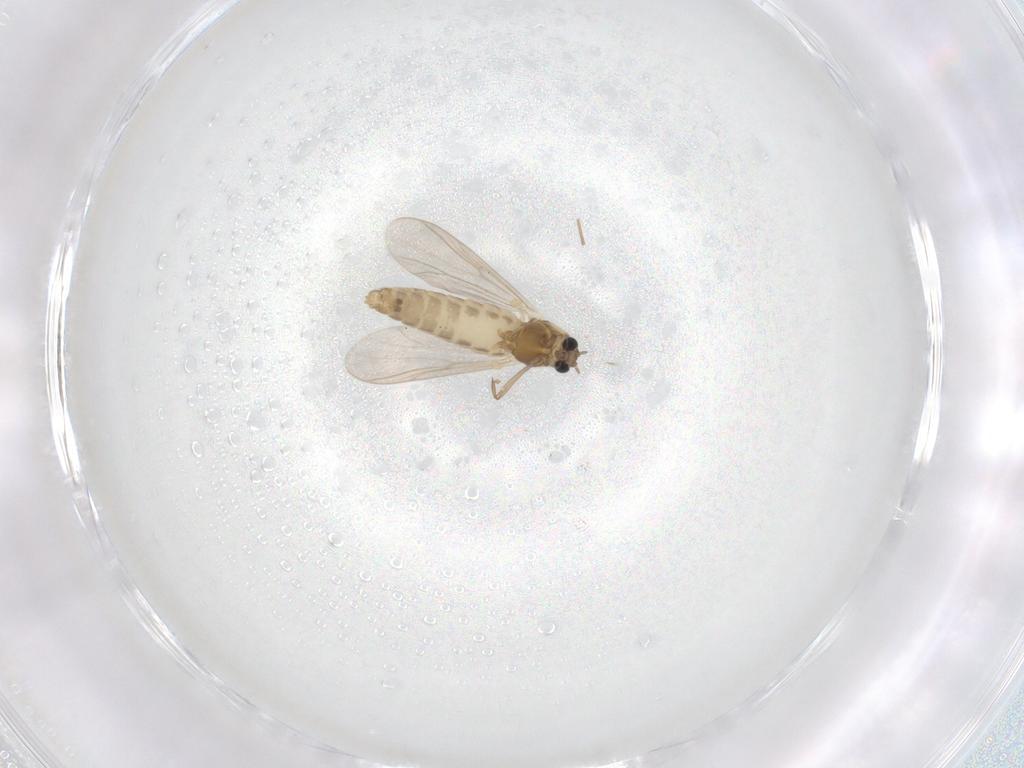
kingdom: Animalia
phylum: Arthropoda
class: Insecta
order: Diptera
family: Chironomidae
